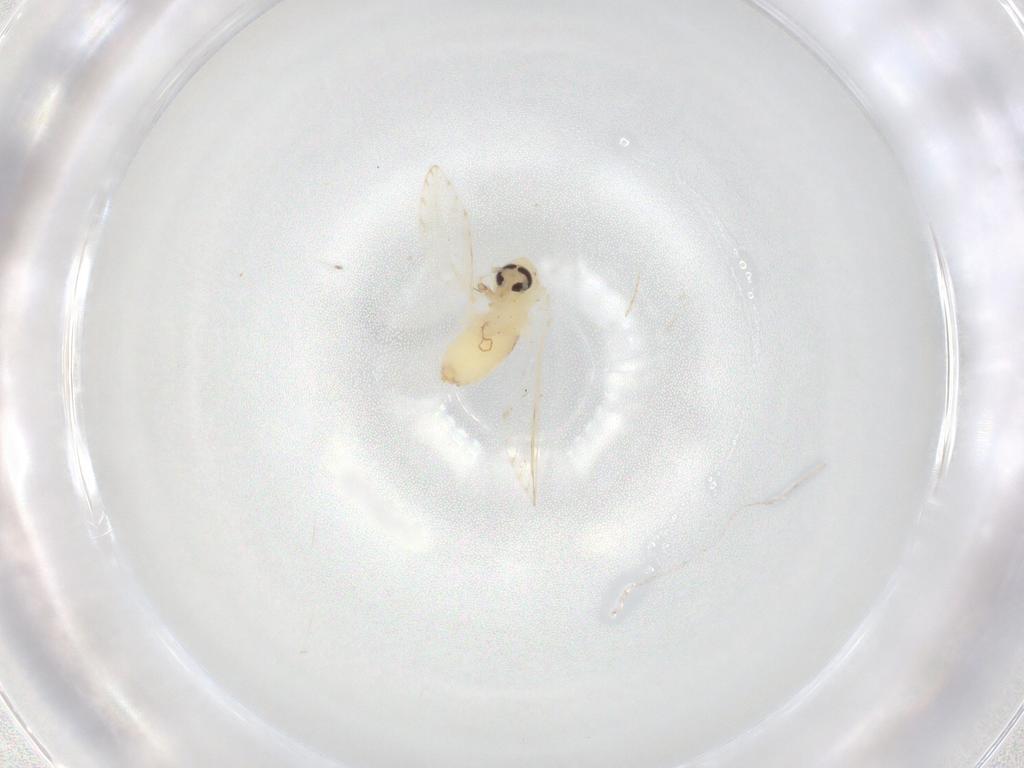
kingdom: Animalia
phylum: Arthropoda
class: Insecta
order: Diptera
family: Psychodidae
